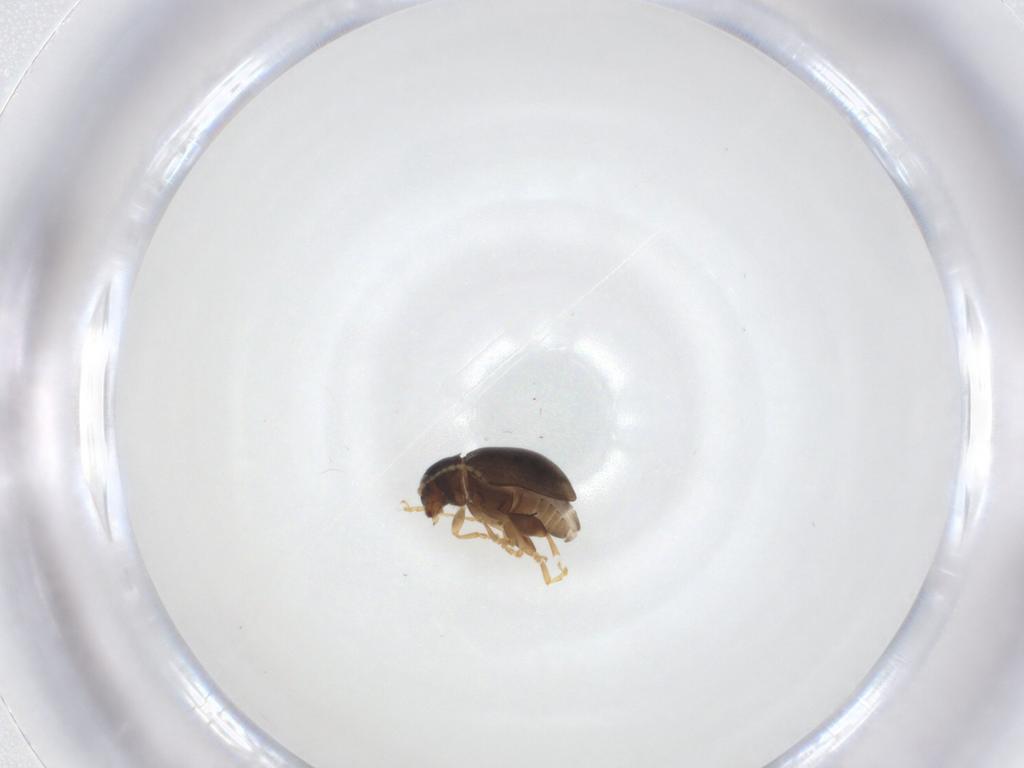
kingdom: Animalia
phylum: Arthropoda
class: Insecta
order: Coleoptera
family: Chrysomelidae
